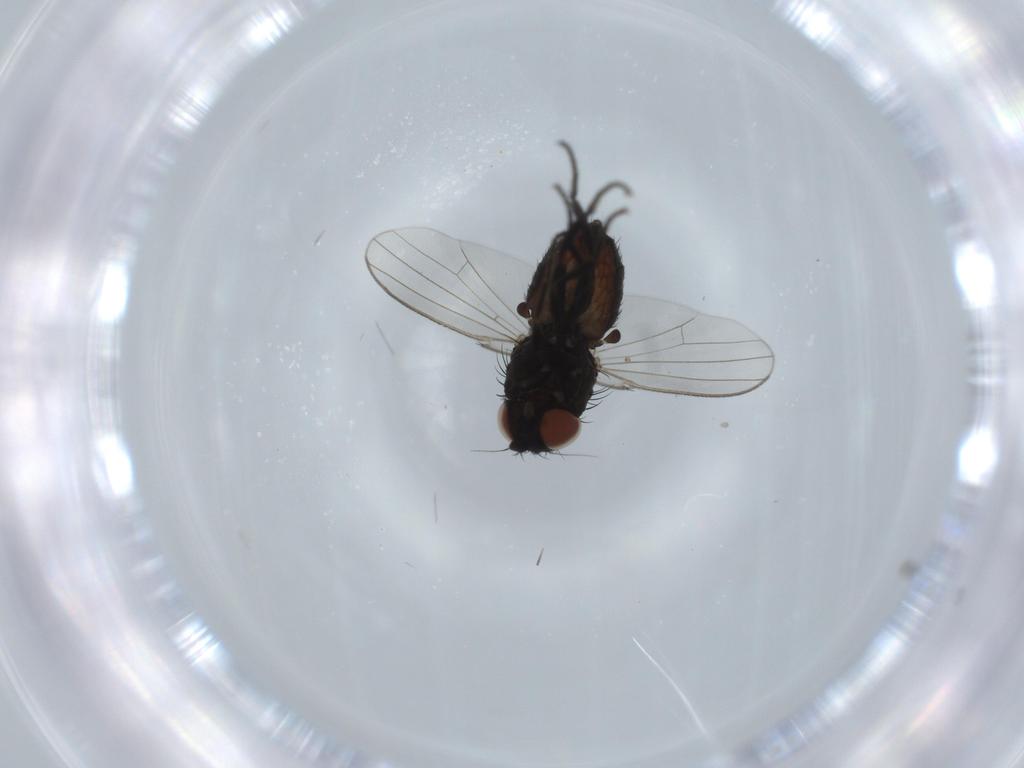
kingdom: Animalia
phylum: Arthropoda
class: Insecta
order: Diptera
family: Milichiidae
